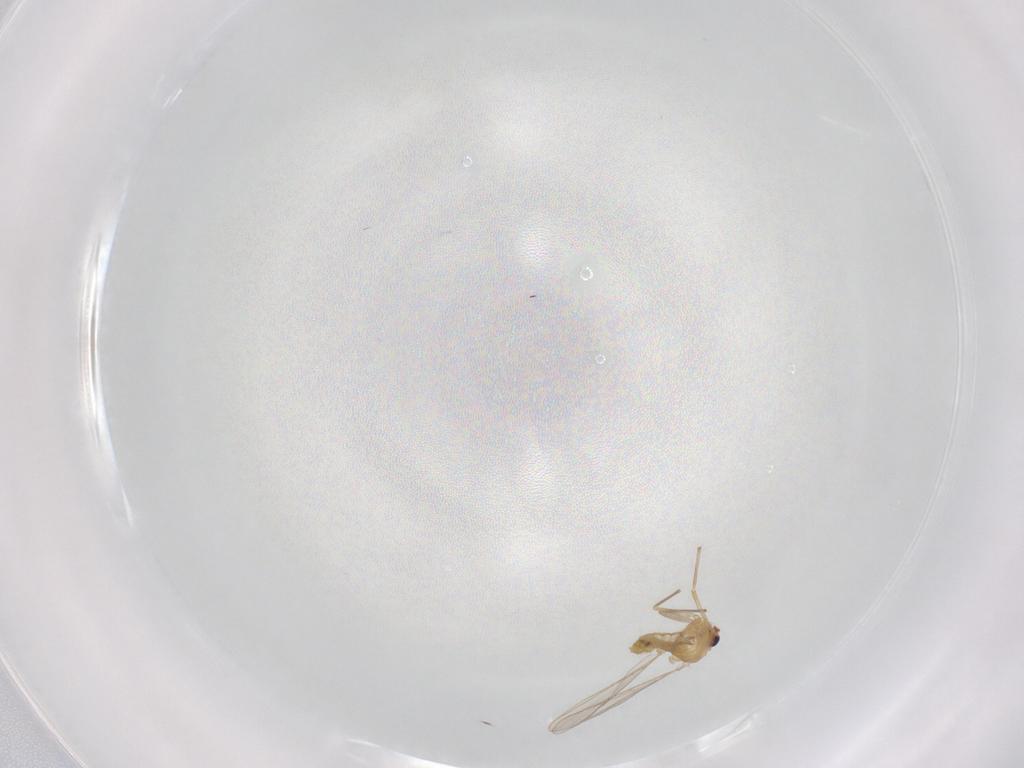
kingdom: Animalia
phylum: Arthropoda
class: Insecta
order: Diptera
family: Chironomidae
